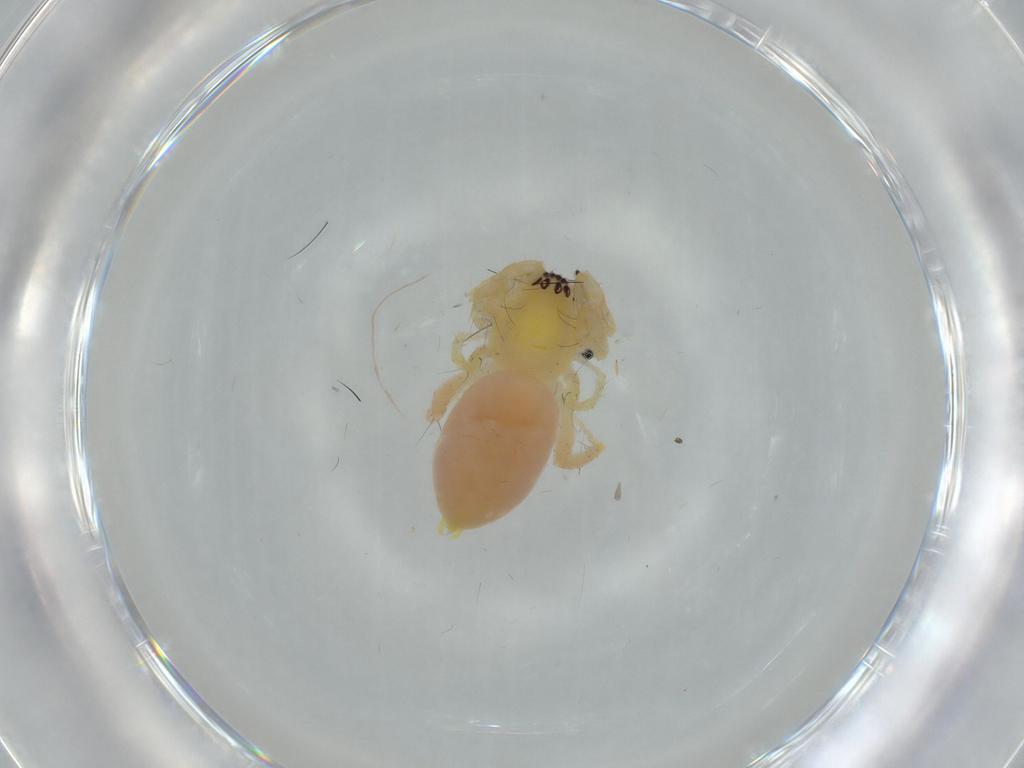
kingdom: Animalia
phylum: Arthropoda
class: Arachnida
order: Araneae
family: Anyphaenidae
